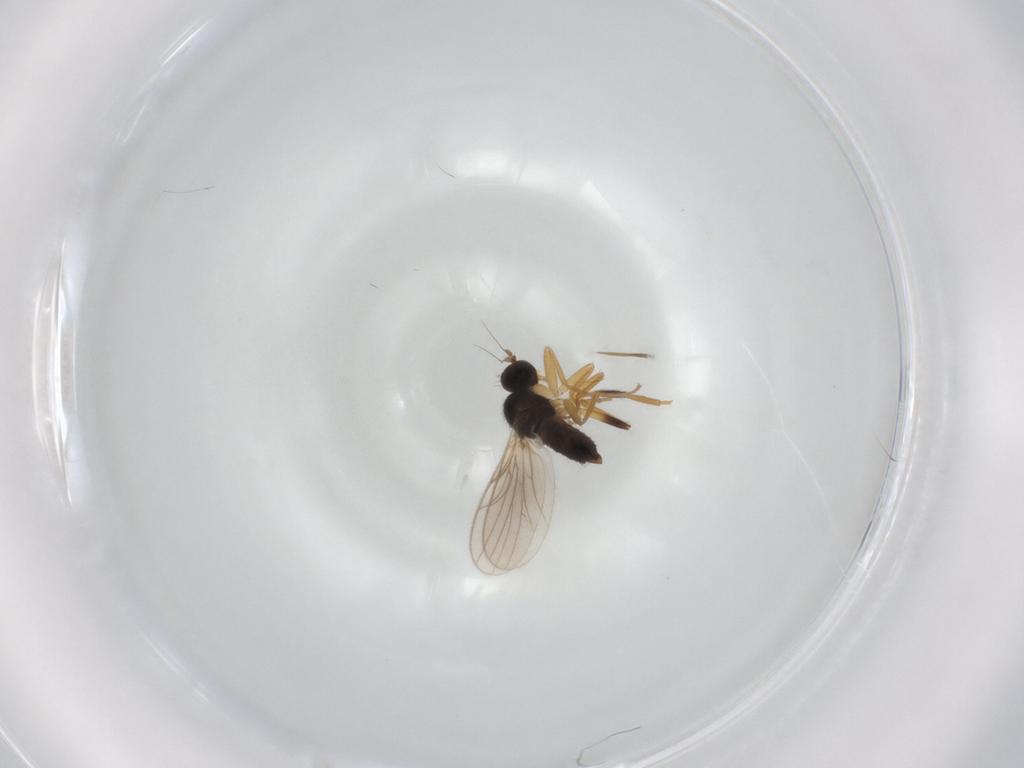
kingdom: Animalia
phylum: Arthropoda
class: Insecta
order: Diptera
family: Hybotidae
